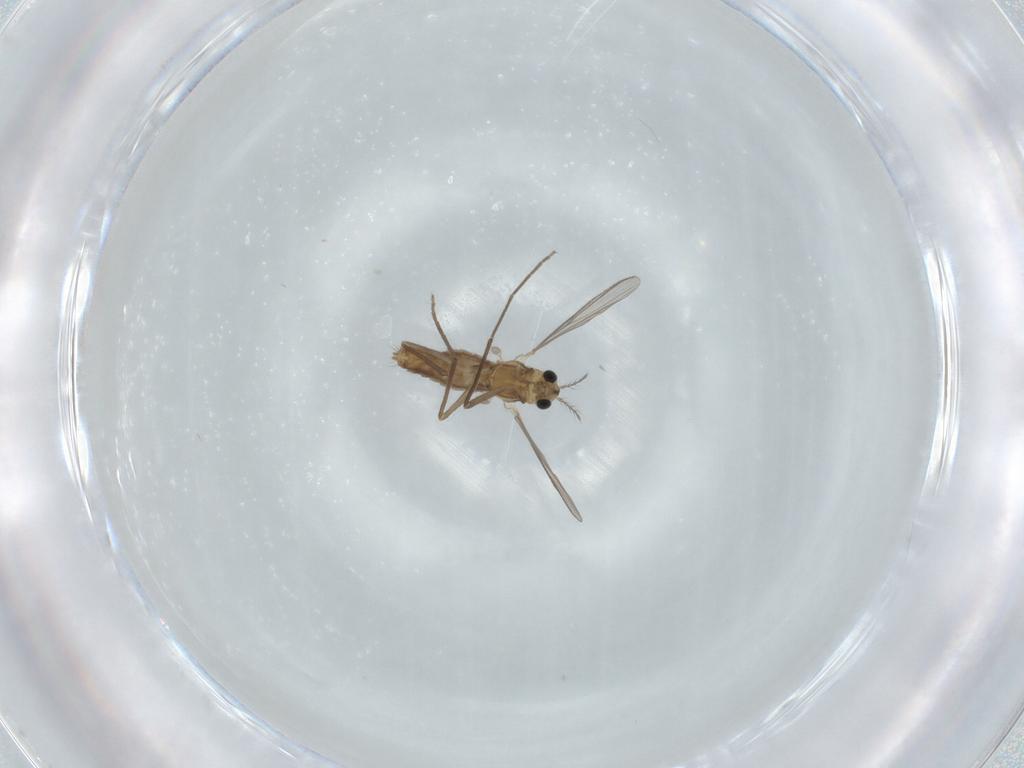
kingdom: Animalia
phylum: Arthropoda
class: Insecta
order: Diptera
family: Chironomidae
